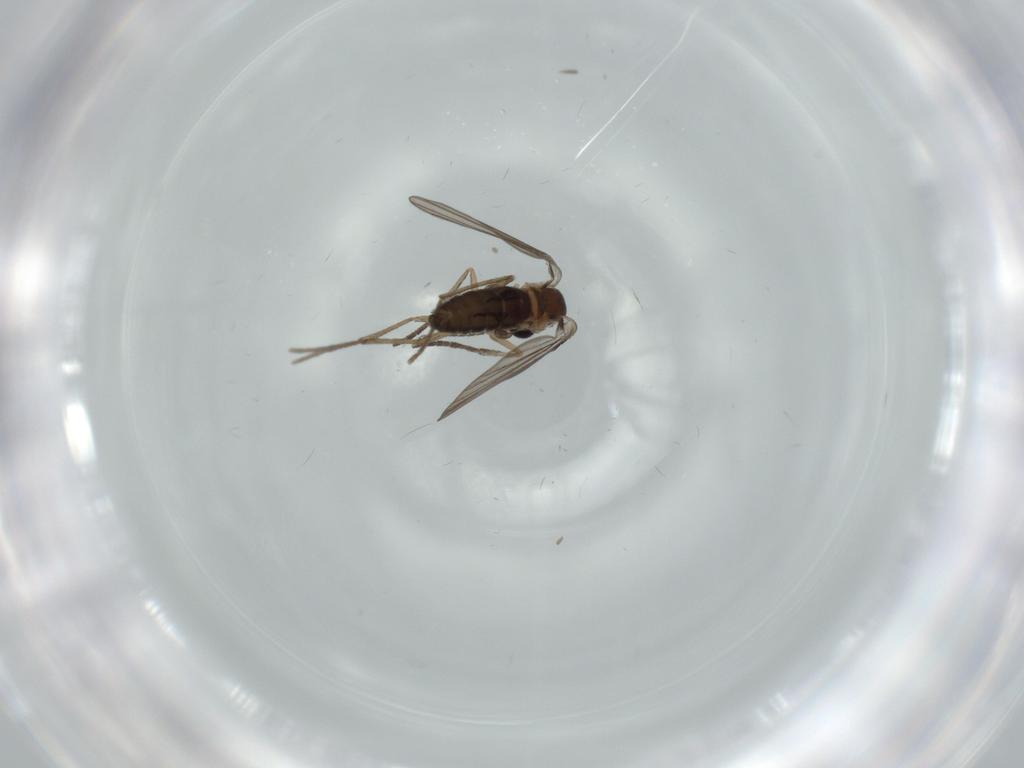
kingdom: Animalia
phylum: Arthropoda
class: Insecta
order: Diptera
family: Psychodidae
